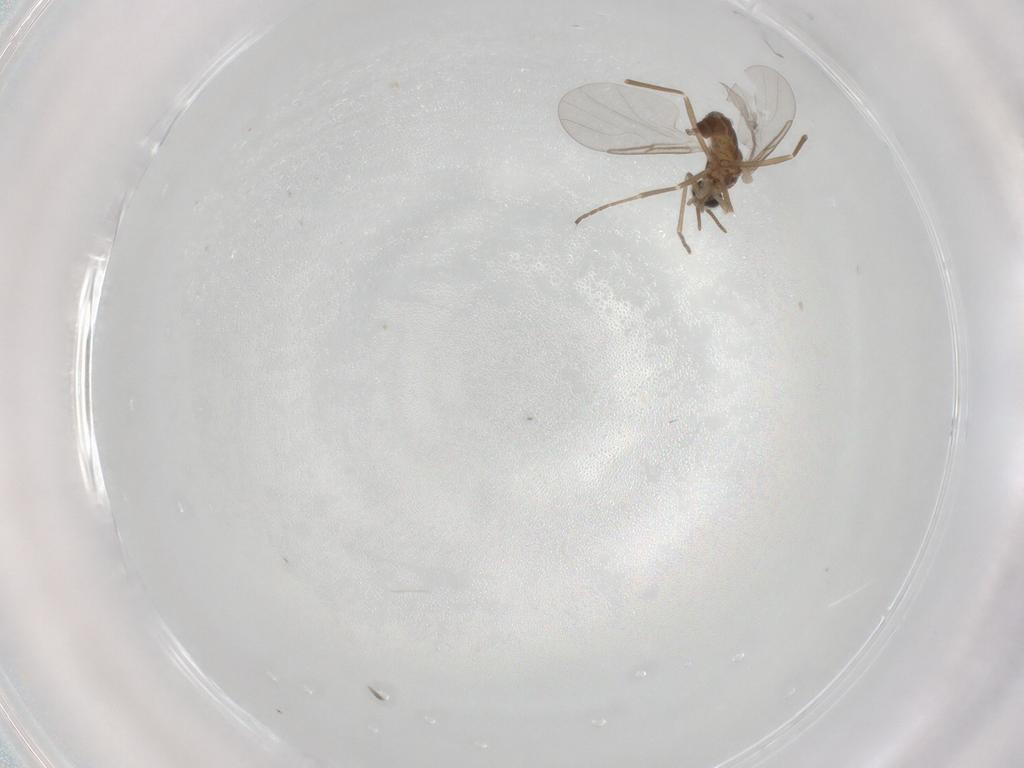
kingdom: Animalia
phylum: Arthropoda
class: Insecta
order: Diptera
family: Cecidomyiidae
